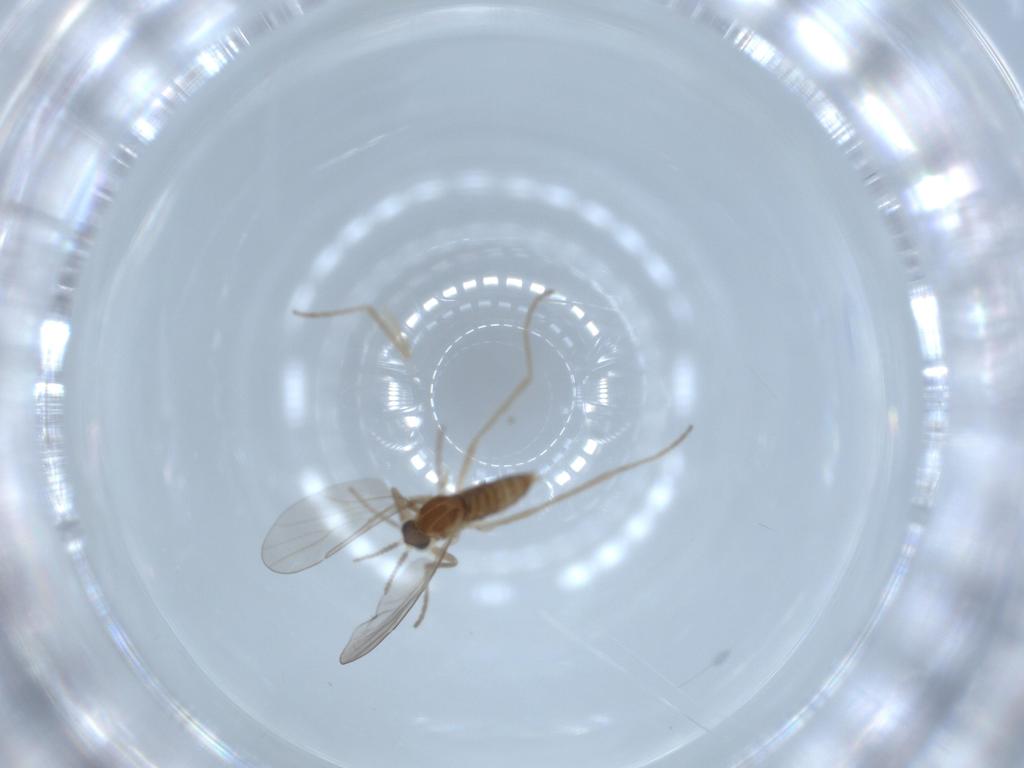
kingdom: Animalia
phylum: Arthropoda
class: Insecta
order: Diptera
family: Cecidomyiidae
